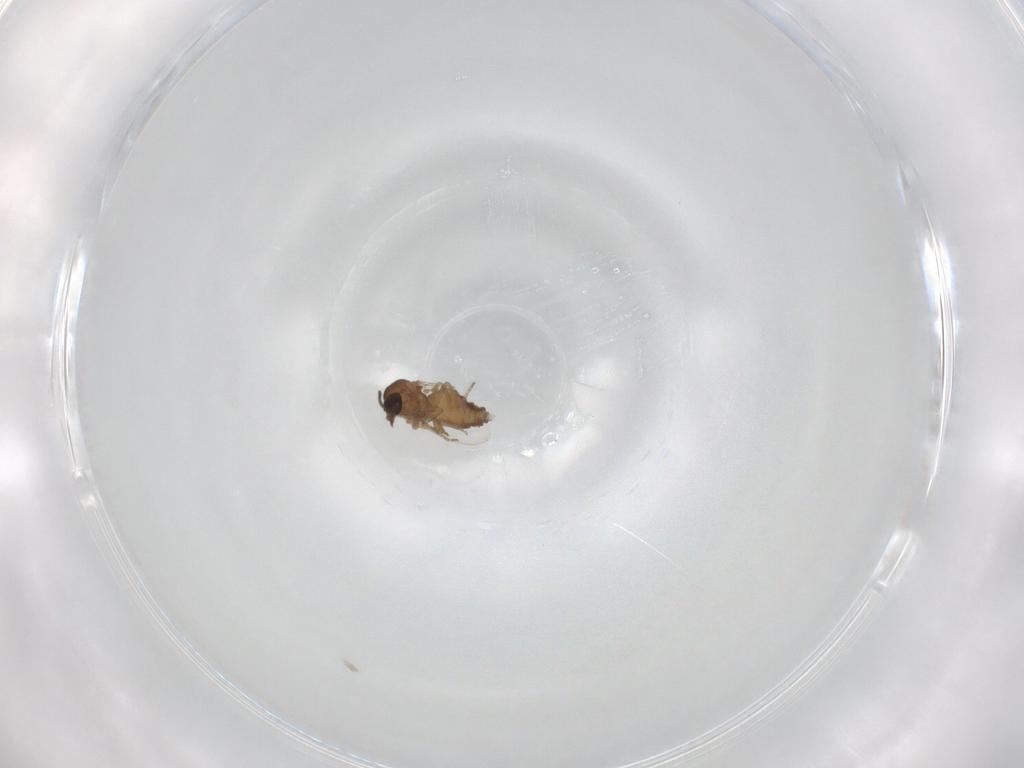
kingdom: Animalia
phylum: Arthropoda
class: Insecta
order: Diptera
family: Ceratopogonidae
